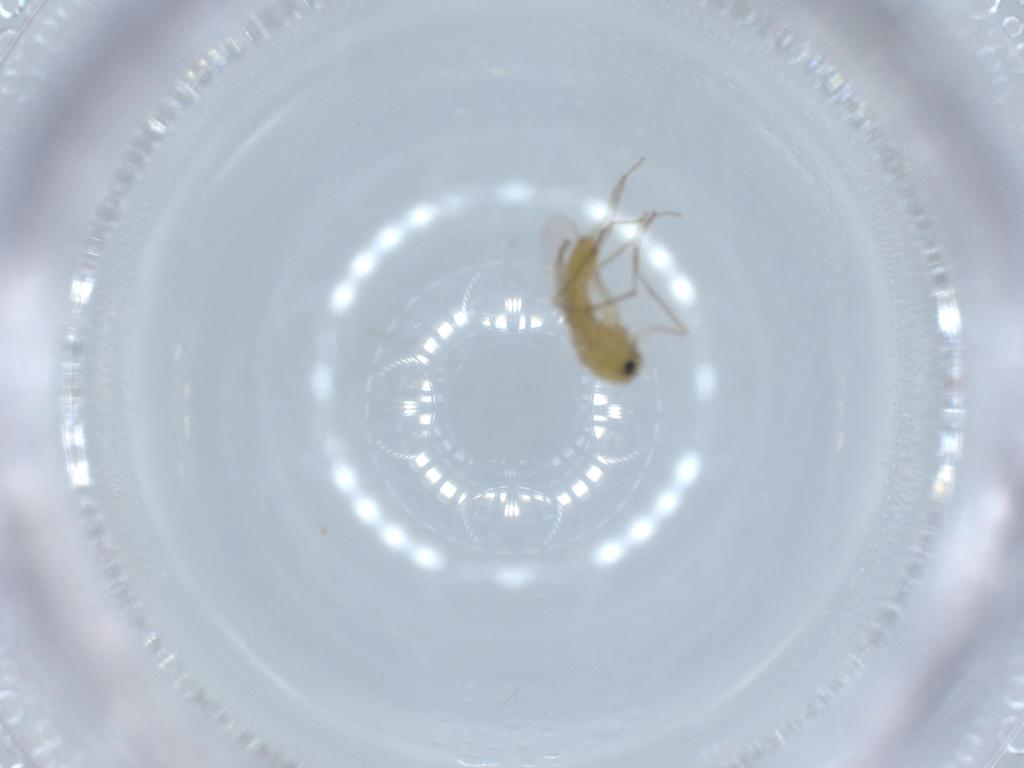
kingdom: Animalia
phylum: Arthropoda
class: Insecta
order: Diptera
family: Chironomidae
